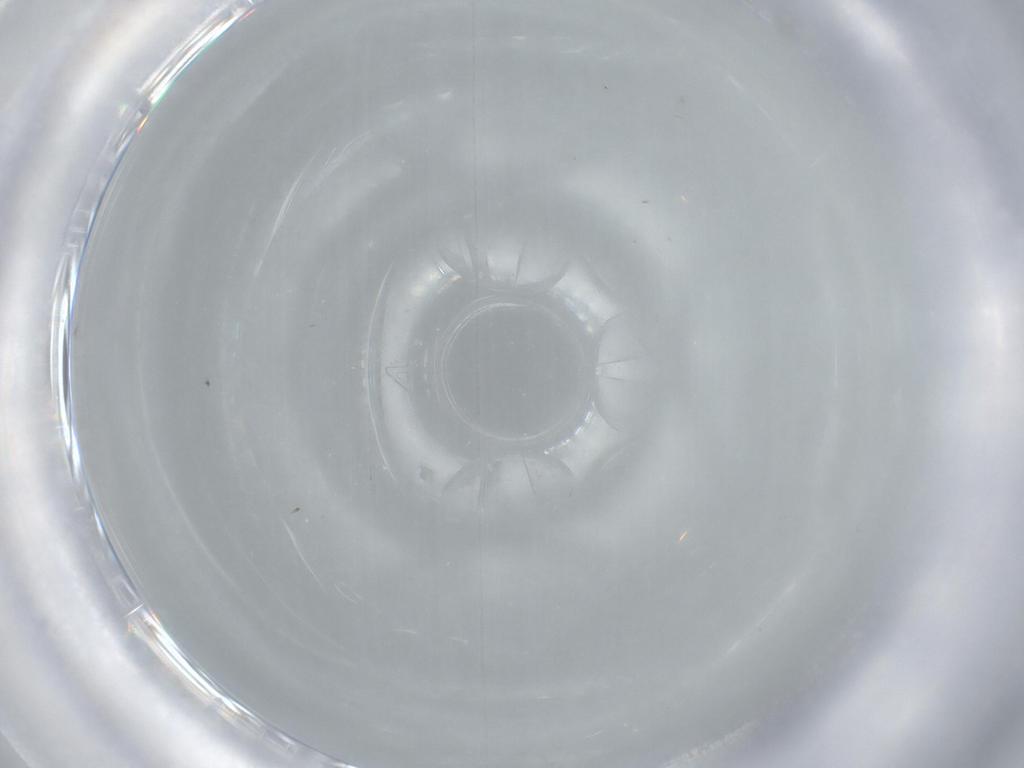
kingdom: Animalia
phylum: Arthropoda
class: Insecta
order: Hymenoptera
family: Trichogrammatidae
